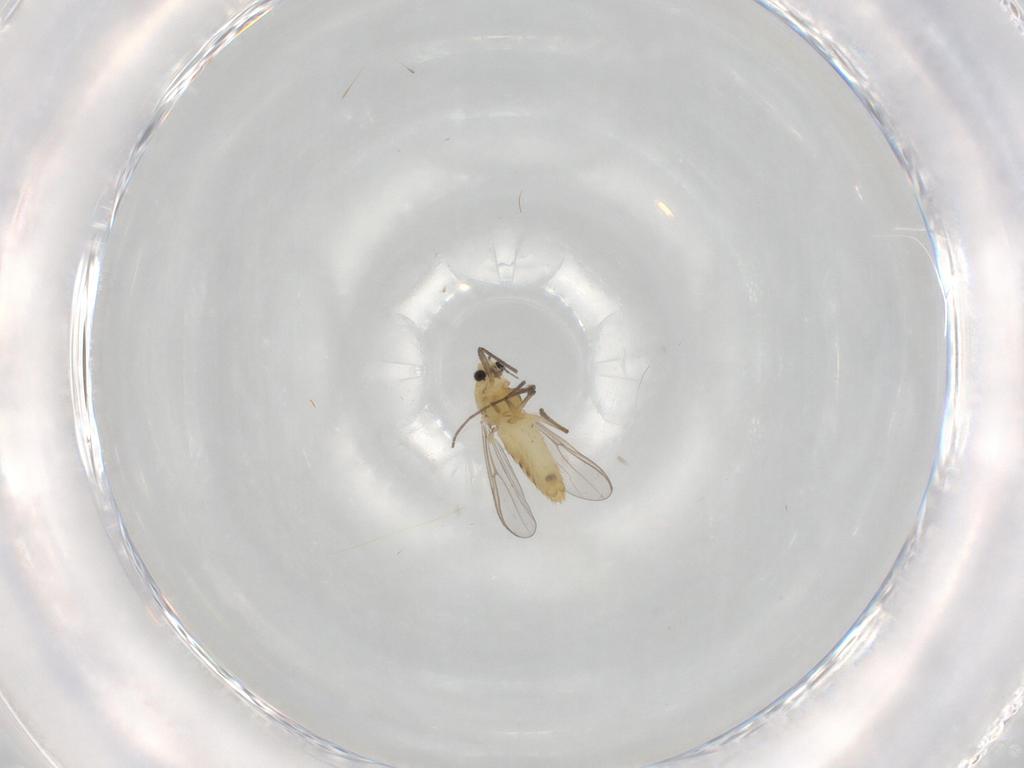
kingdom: Animalia
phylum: Arthropoda
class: Insecta
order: Diptera
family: Chironomidae
